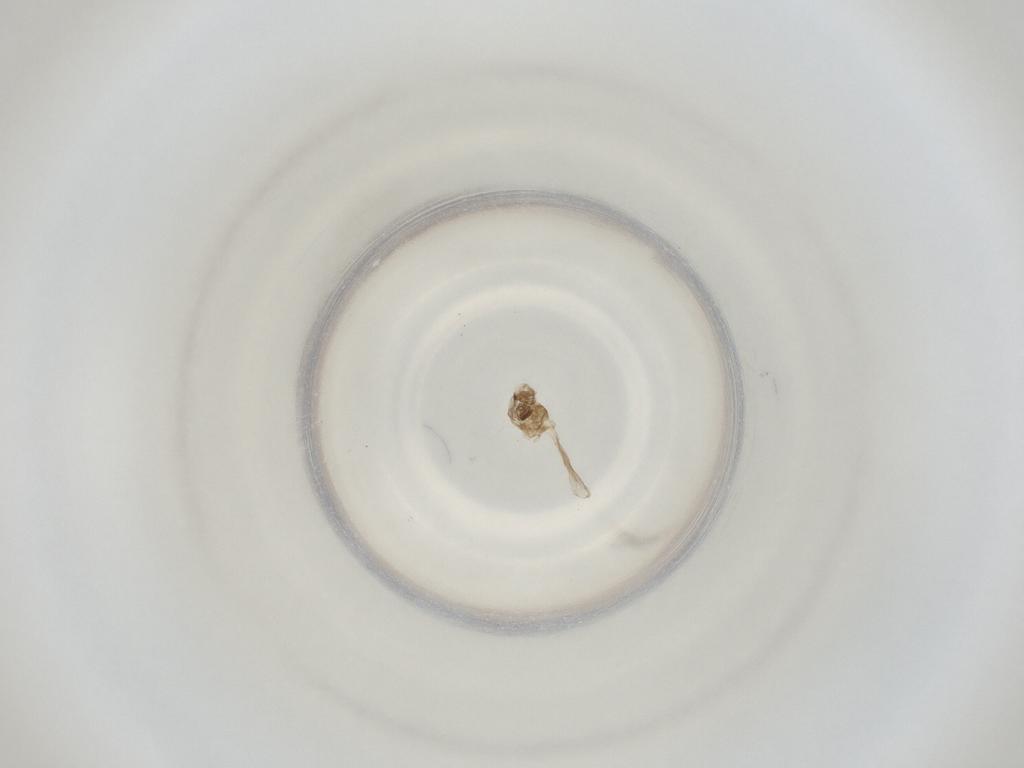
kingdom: Animalia
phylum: Arthropoda
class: Insecta
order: Diptera
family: Cecidomyiidae
